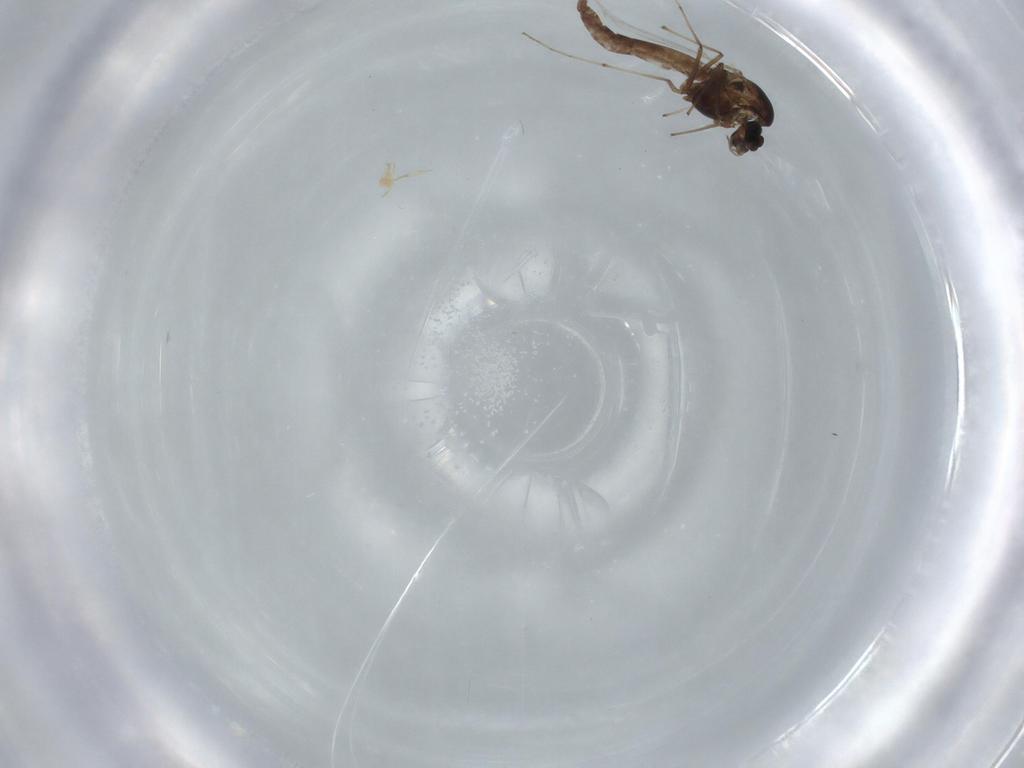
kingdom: Animalia
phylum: Arthropoda
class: Insecta
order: Diptera
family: Chironomidae
